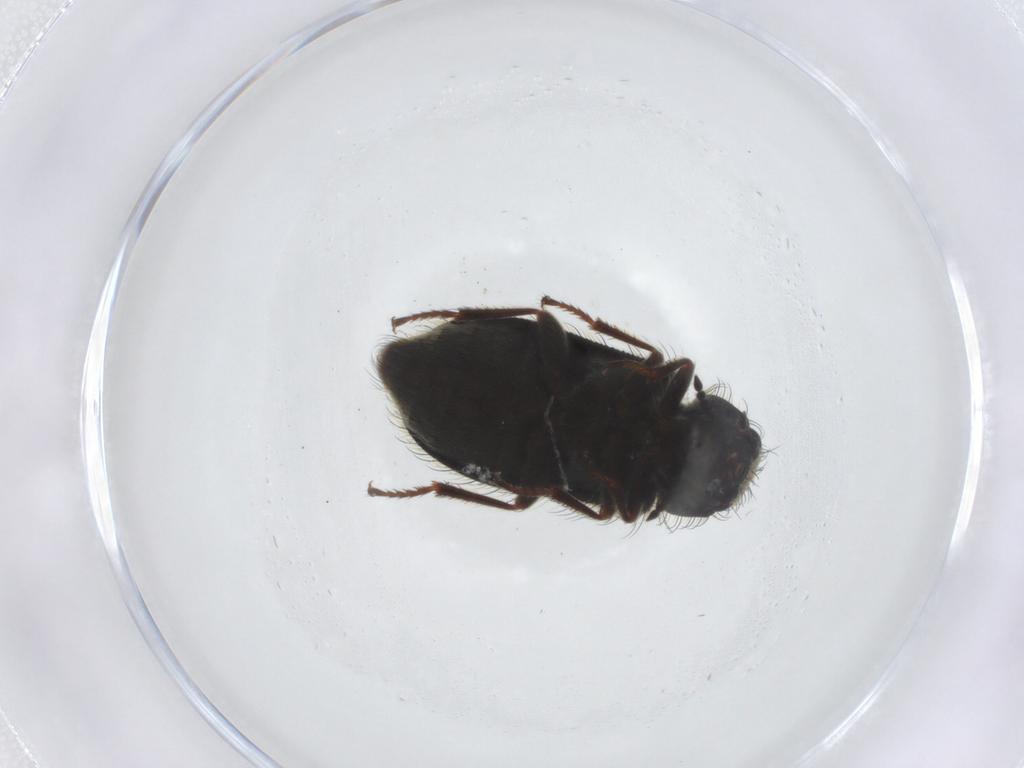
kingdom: Animalia
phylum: Arthropoda
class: Insecta
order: Coleoptera
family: Melyridae
